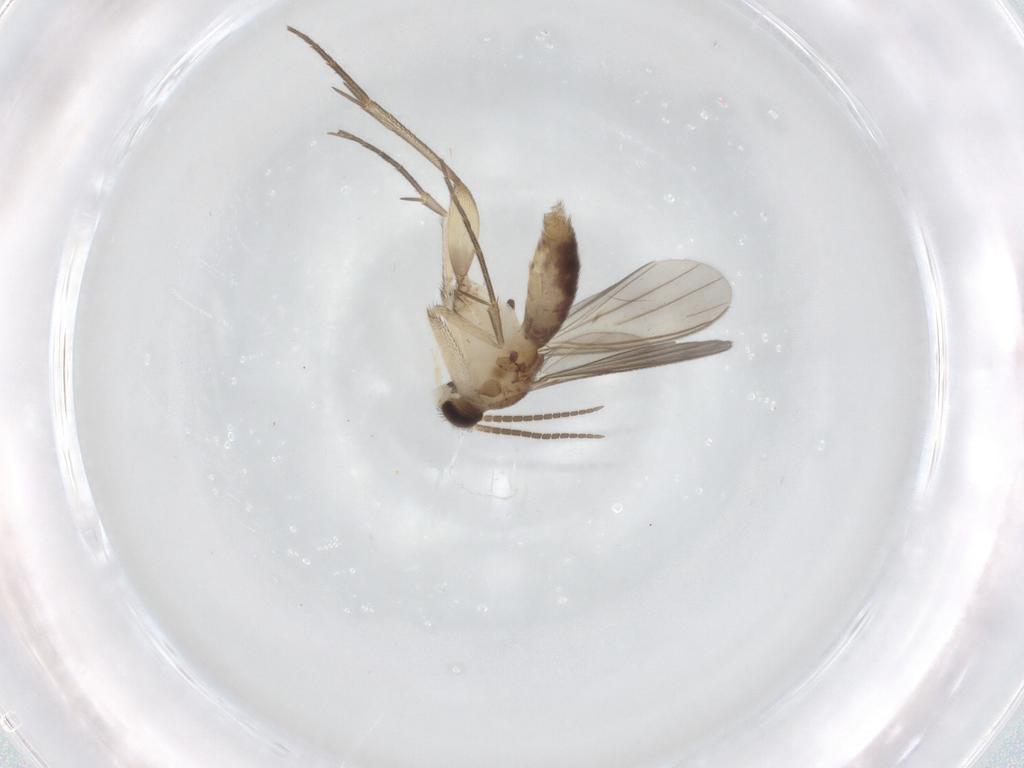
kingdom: Animalia
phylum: Arthropoda
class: Insecta
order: Diptera
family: Mycetophilidae
